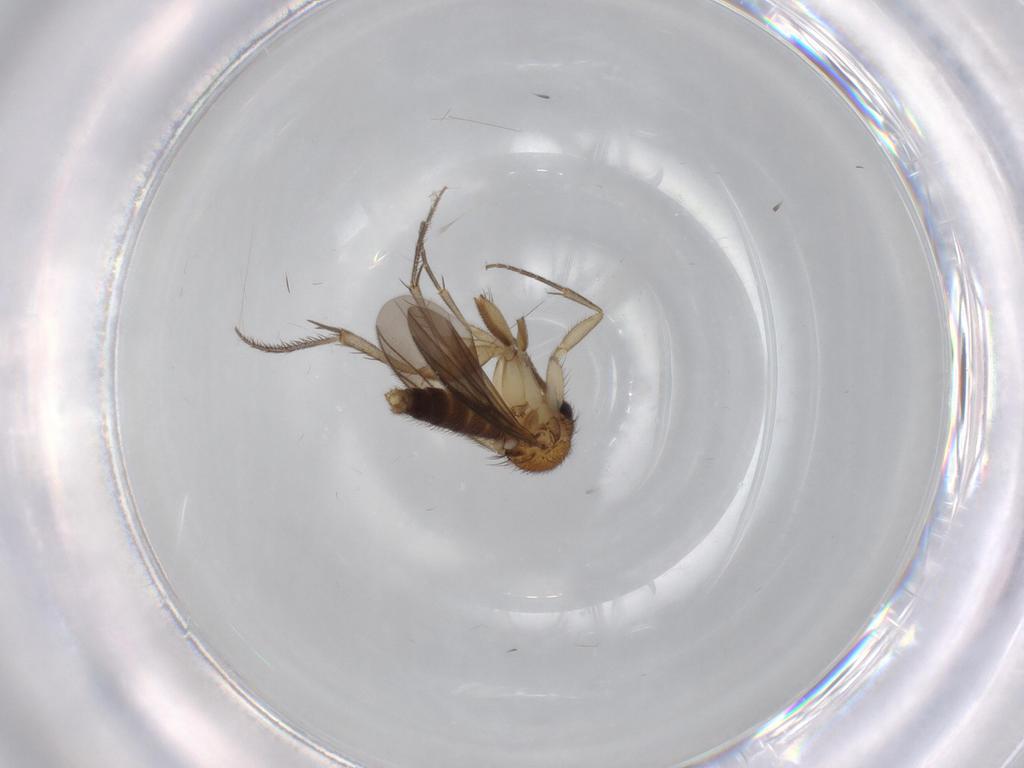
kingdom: Animalia
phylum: Arthropoda
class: Insecta
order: Diptera
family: Mycetophilidae
